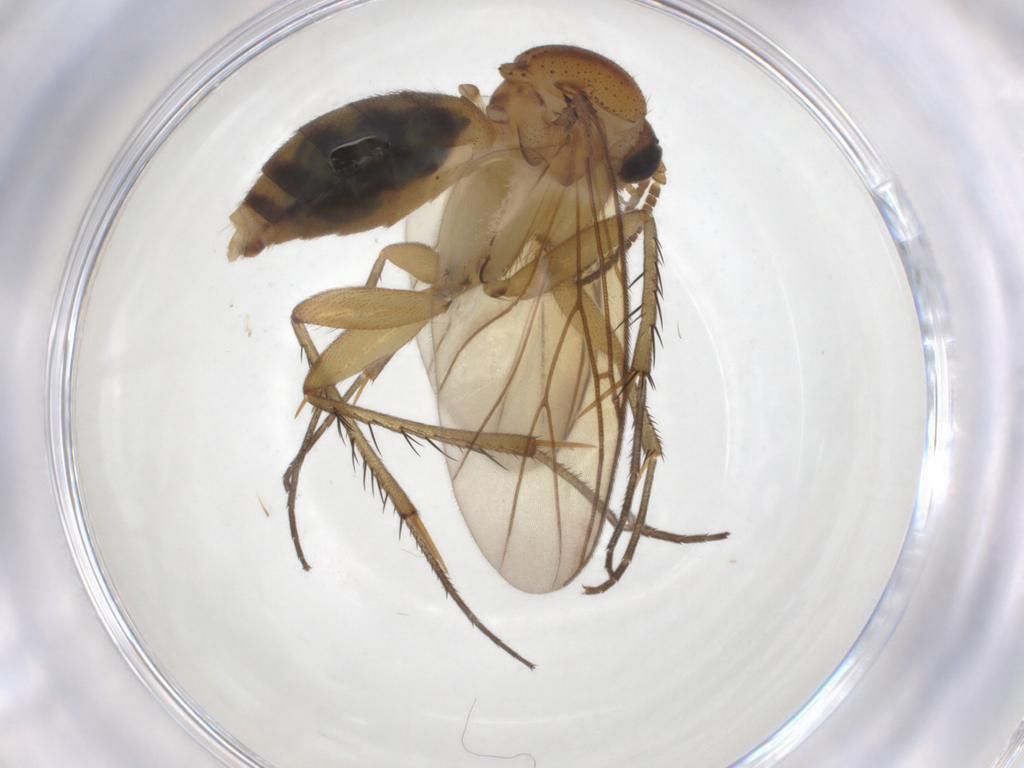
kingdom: Animalia
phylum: Arthropoda
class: Insecta
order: Diptera
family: Mycetophilidae
